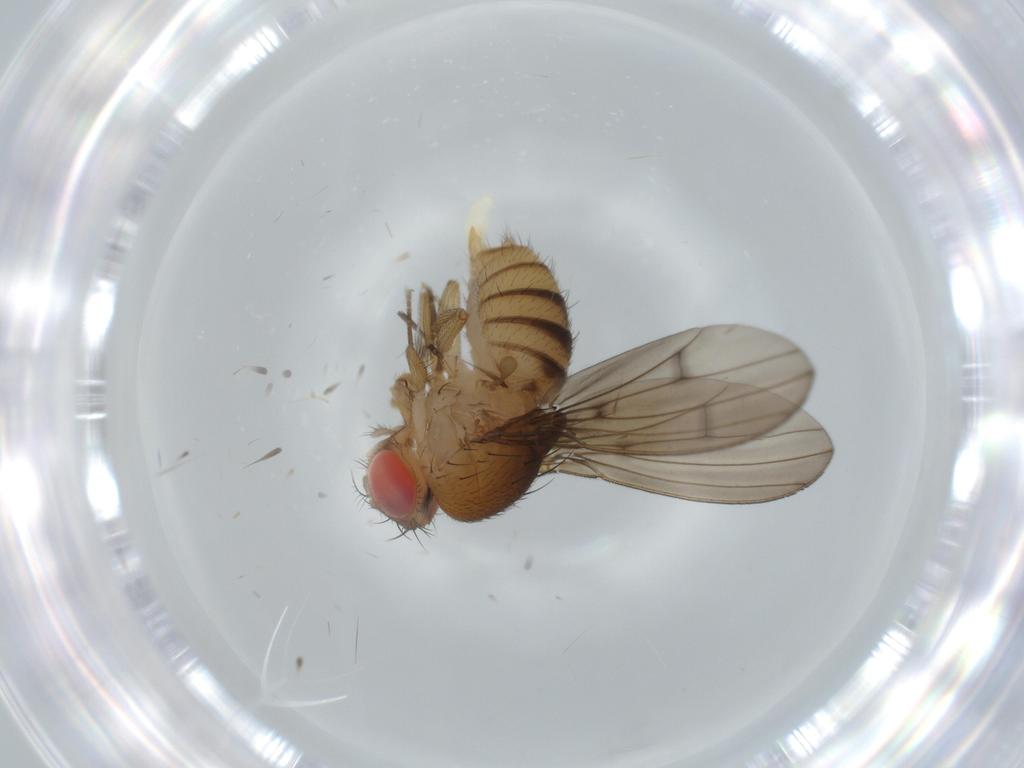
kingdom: Animalia
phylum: Arthropoda
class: Insecta
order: Diptera
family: Drosophilidae
